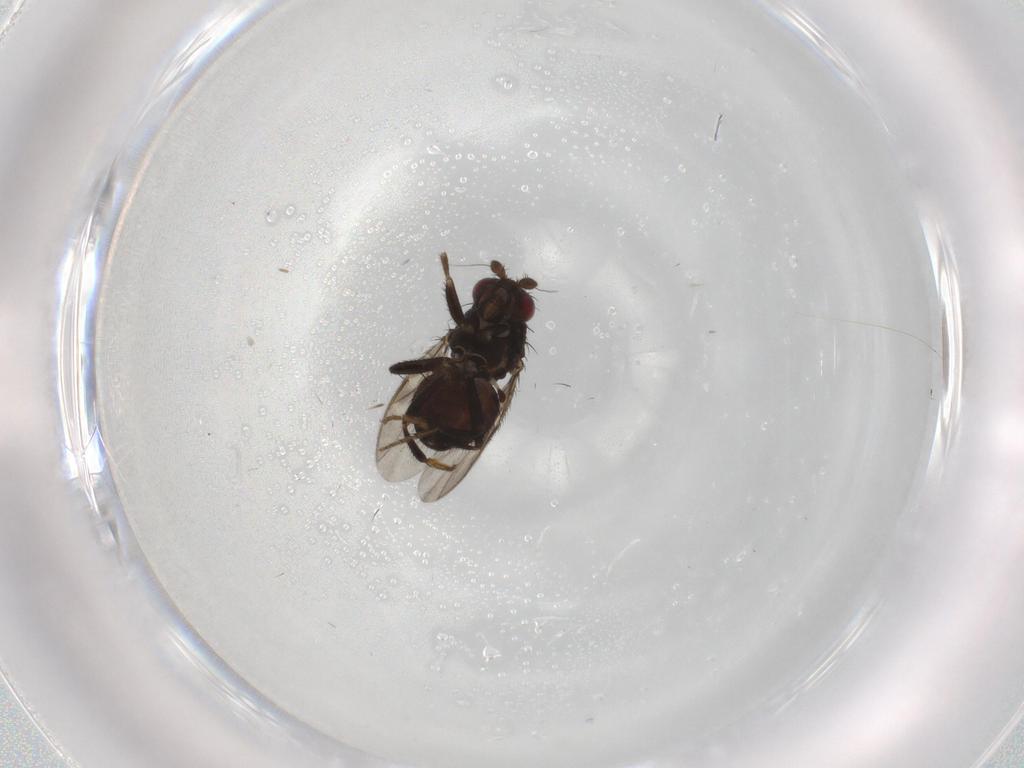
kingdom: Animalia
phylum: Arthropoda
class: Insecta
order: Diptera
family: Sphaeroceridae
